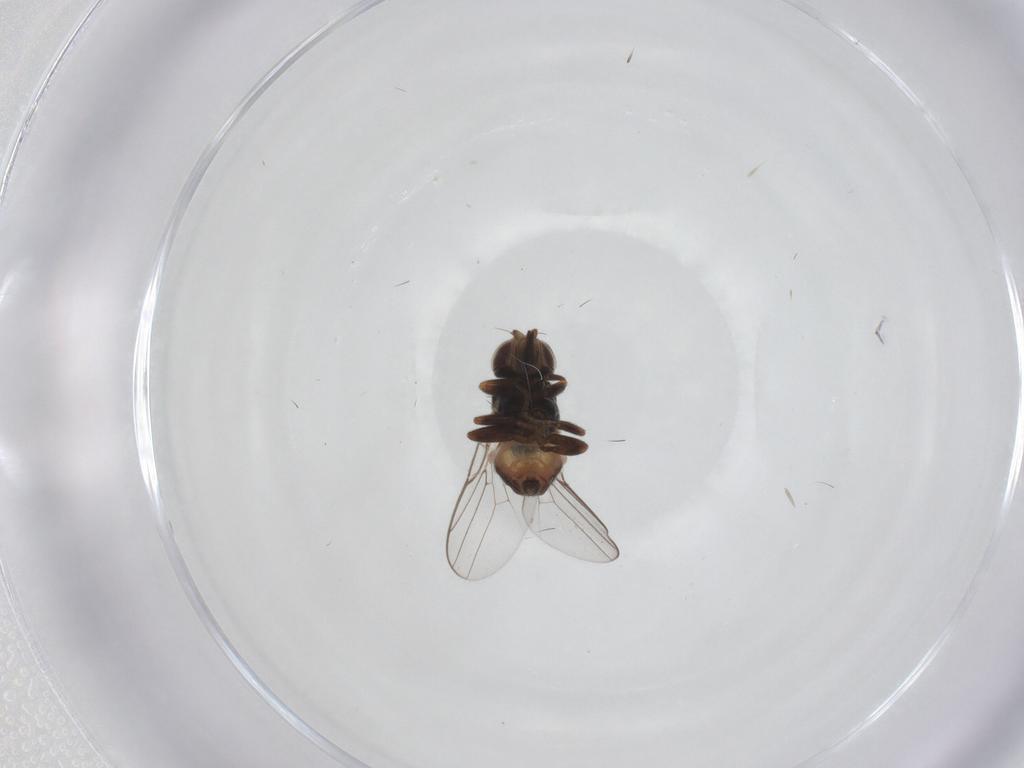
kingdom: Animalia
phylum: Arthropoda
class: Insecta
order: Diptera
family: Chloropidae
